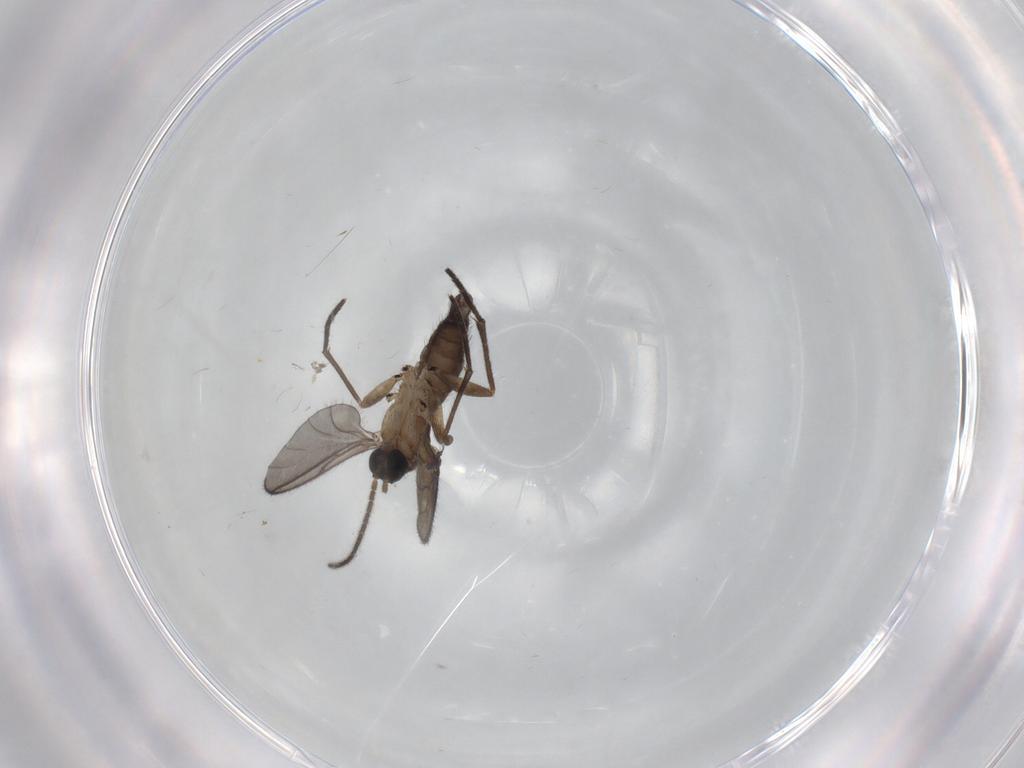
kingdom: Animalia
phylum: Arthropoda
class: Insecta
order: Diptera
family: Sciaridae
